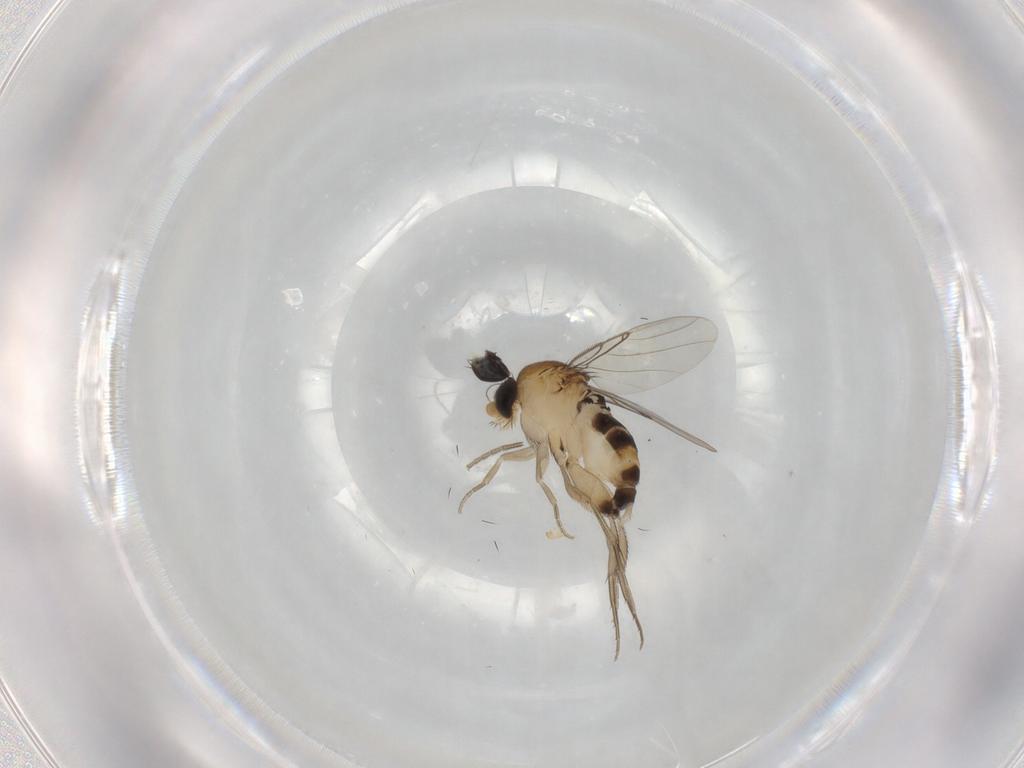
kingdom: Animalia
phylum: Arthropoda
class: Insecta
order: Diptera
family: Phoridae
